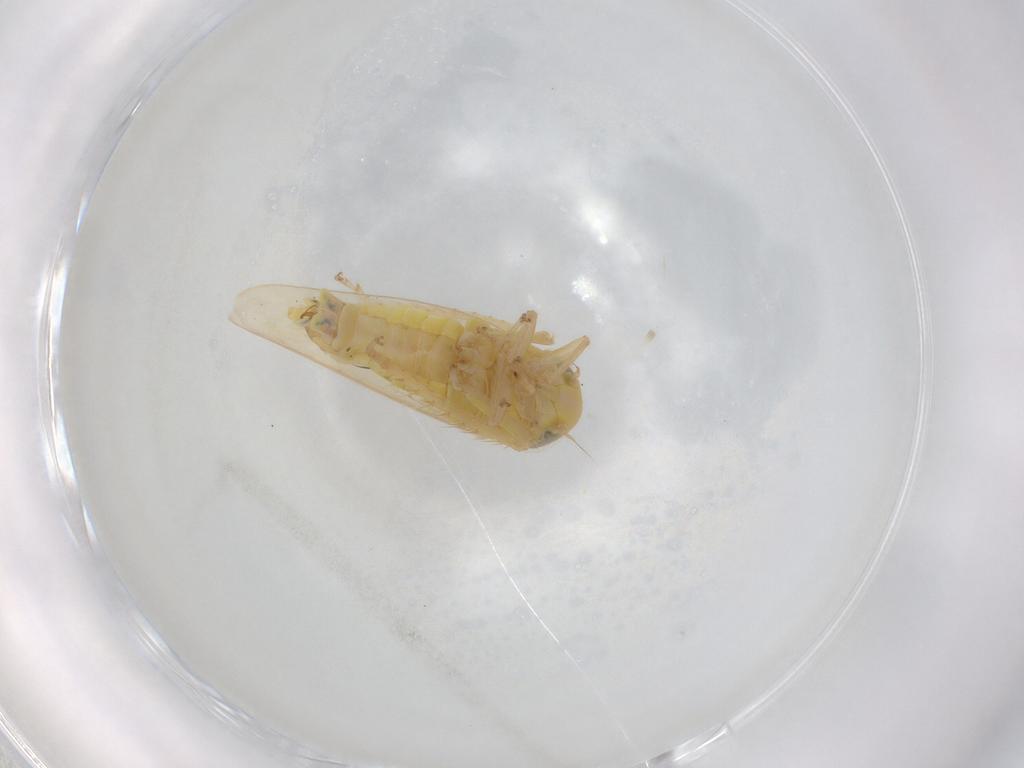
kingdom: Animalia
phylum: Arthropoda
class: Insecta
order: Hemiptera
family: Cicadellidae
